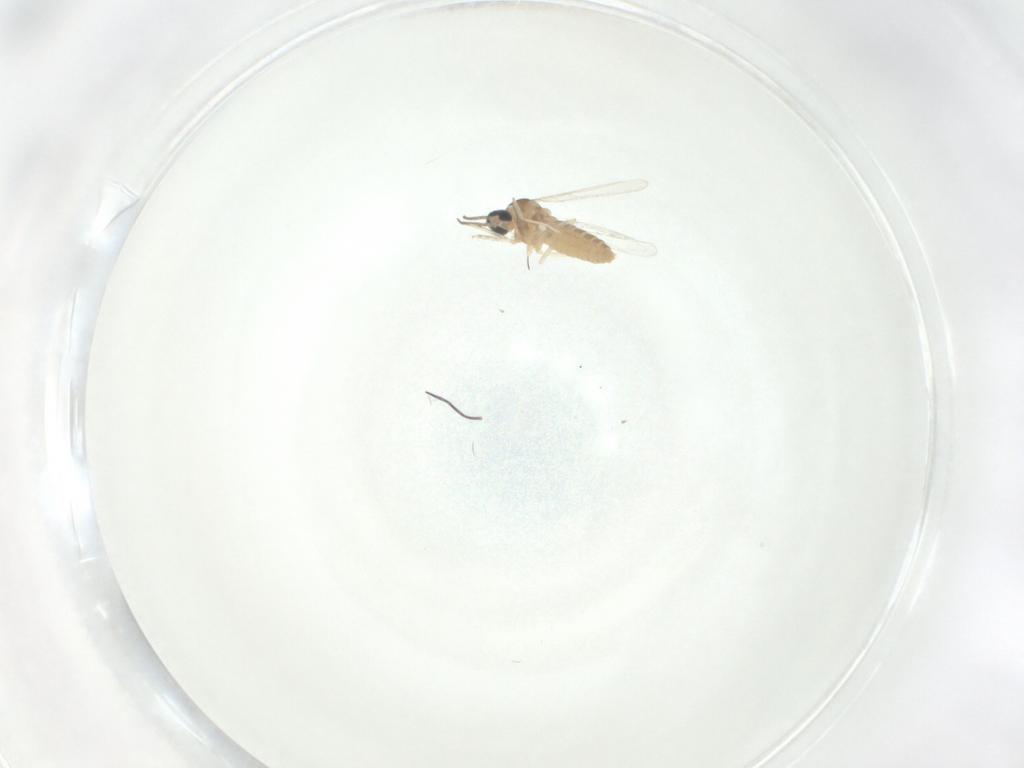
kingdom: Animalia
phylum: Arthropoda
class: Insecta
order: Diptera
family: Cecidomyiidae
